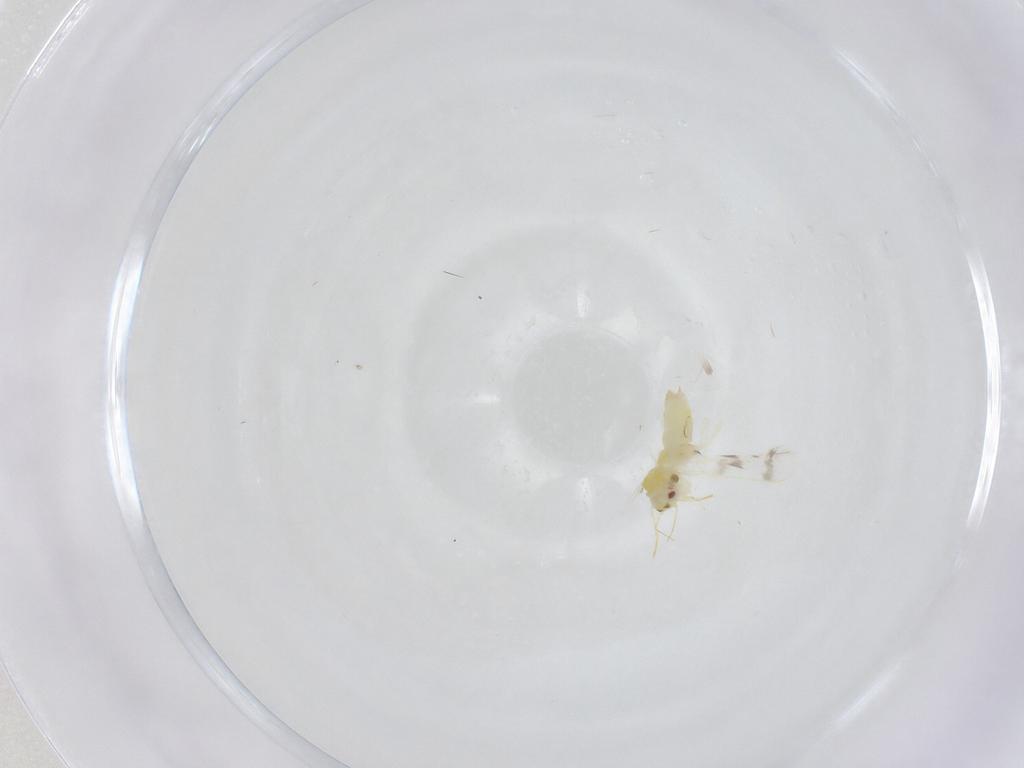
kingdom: Animalia
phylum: Arthropoda
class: Insecta
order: Hemiptera
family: Aleyrodidae
